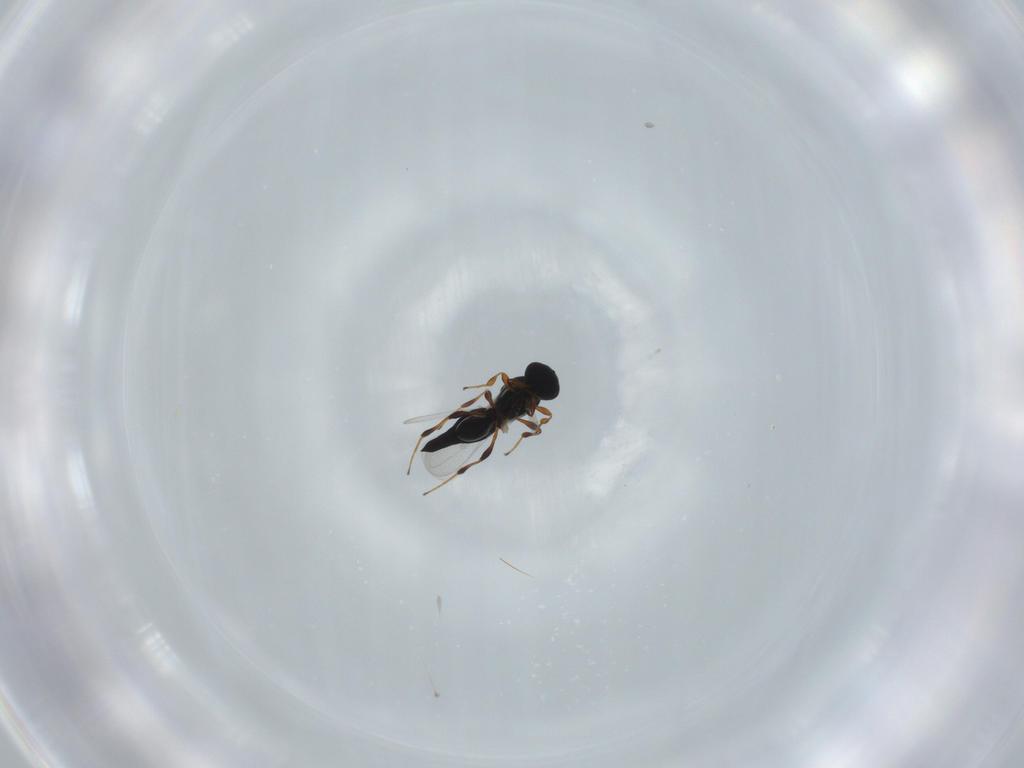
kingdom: Animalia
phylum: Arthropoda
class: Insecta
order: Hymenoptera
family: Platygastridae
